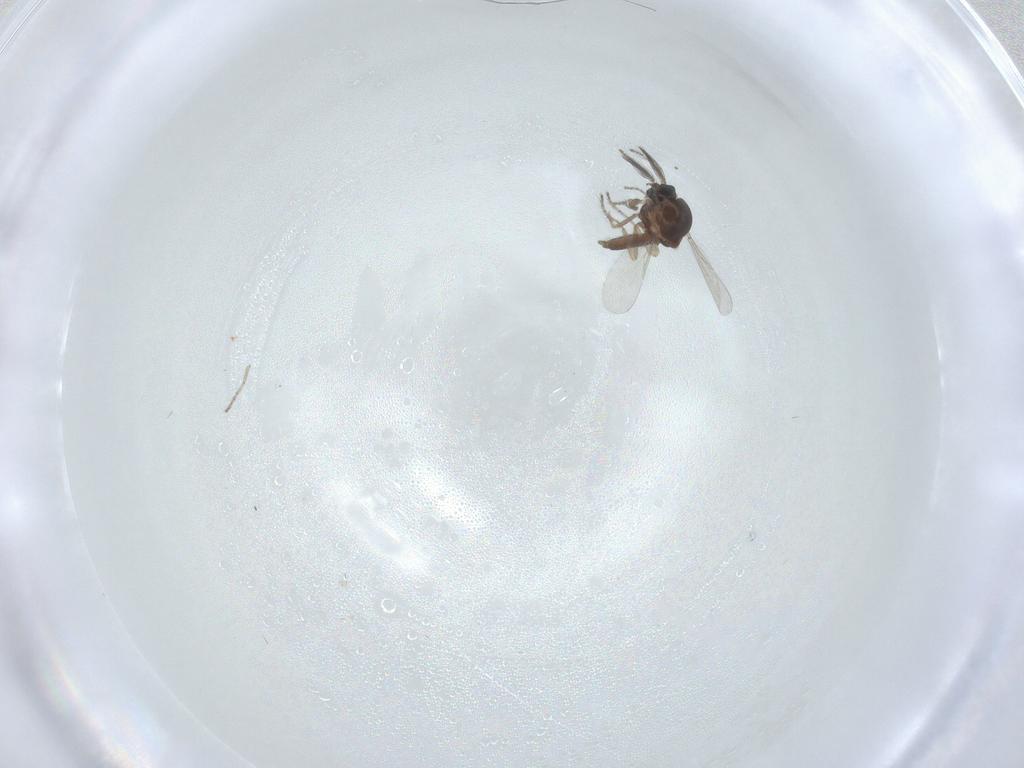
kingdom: Animalia
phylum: Arthropoda
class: Insecta
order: Diptera
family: Ceratopogonidae
